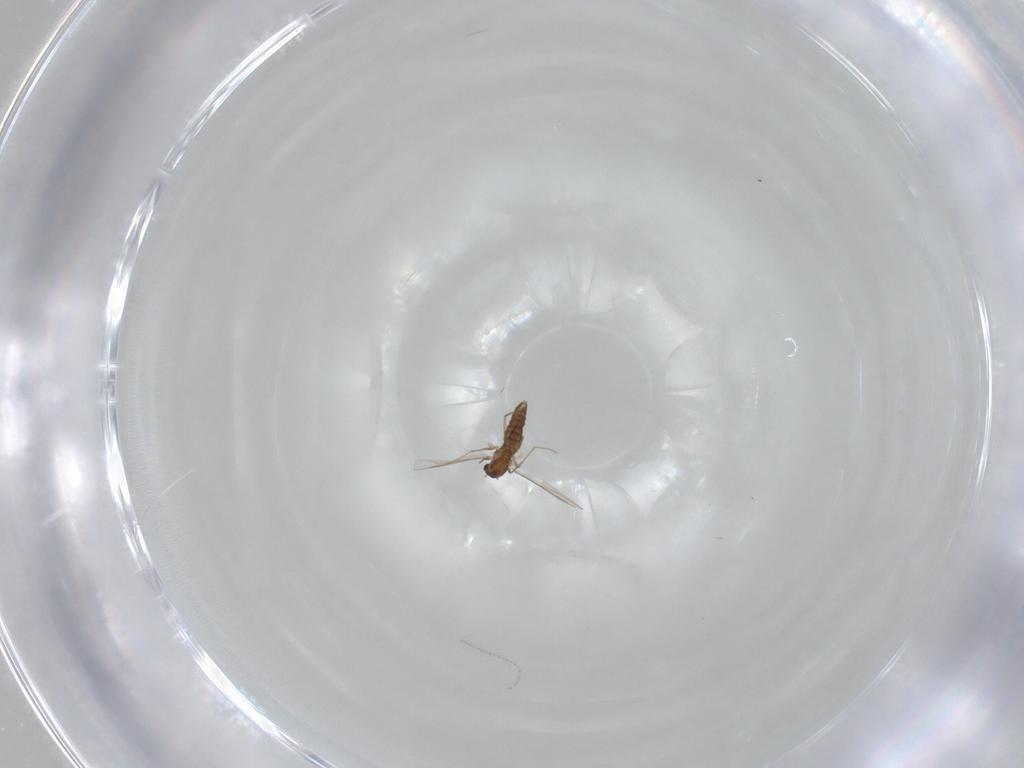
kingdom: Animalia
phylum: Arthropoda
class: Insecta
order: Diptera
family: Chironomidae
